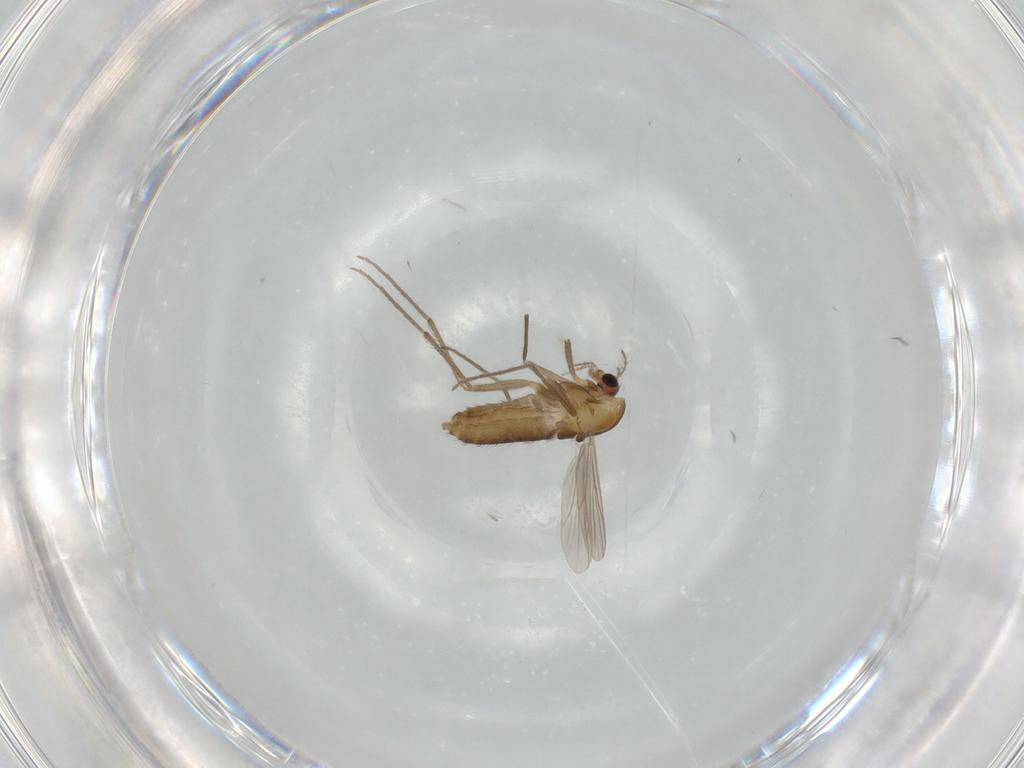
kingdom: Animalia
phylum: Arthropoda
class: Insecta
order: Diptera
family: Chironomidae
